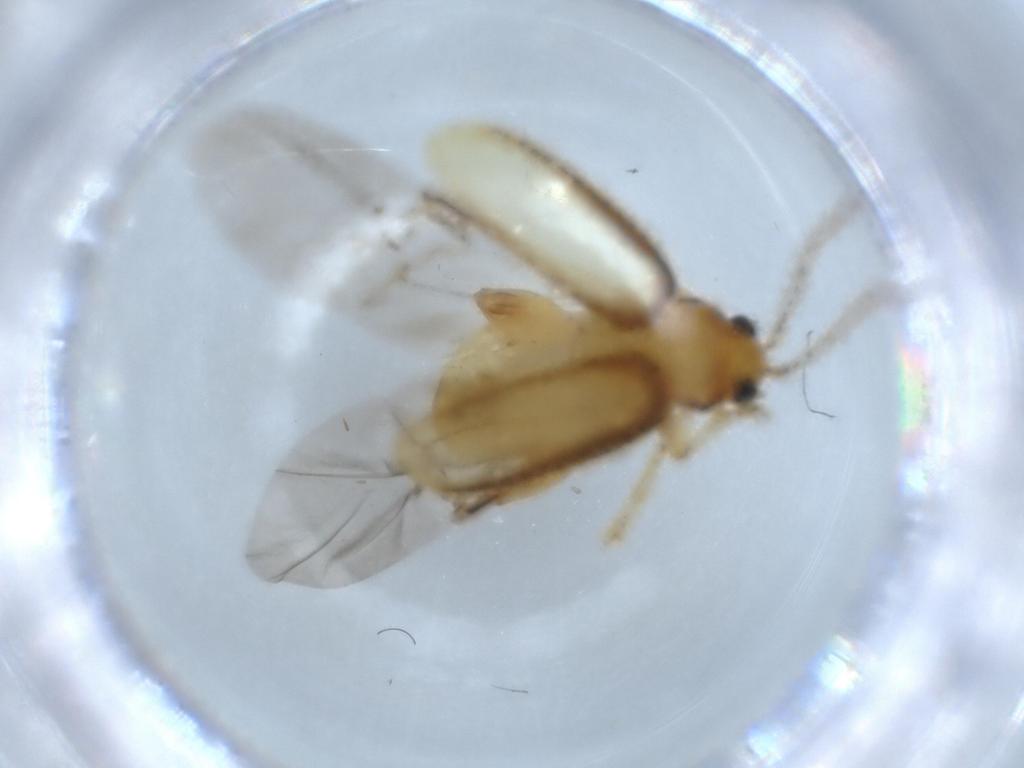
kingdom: Animalia
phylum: Arthropoda
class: Insecta
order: Coleoptera
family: Chrysomelidae
